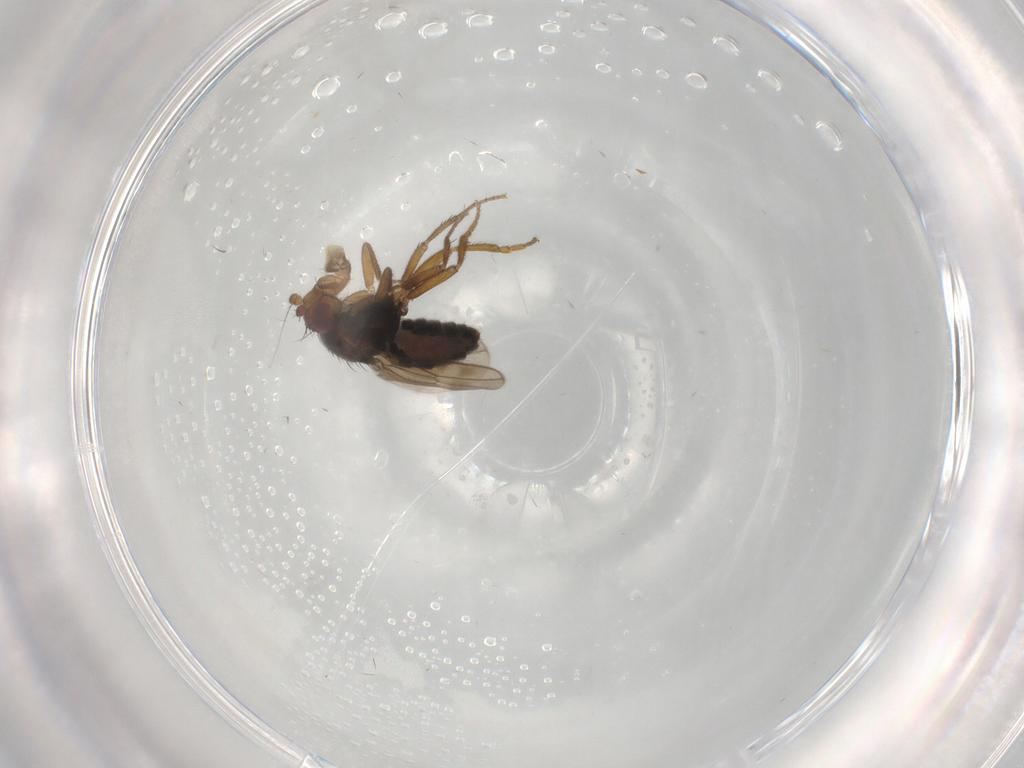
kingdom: Animalia
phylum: Arthropoda
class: Insecta
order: Diptera
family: Sphaeroceridae
